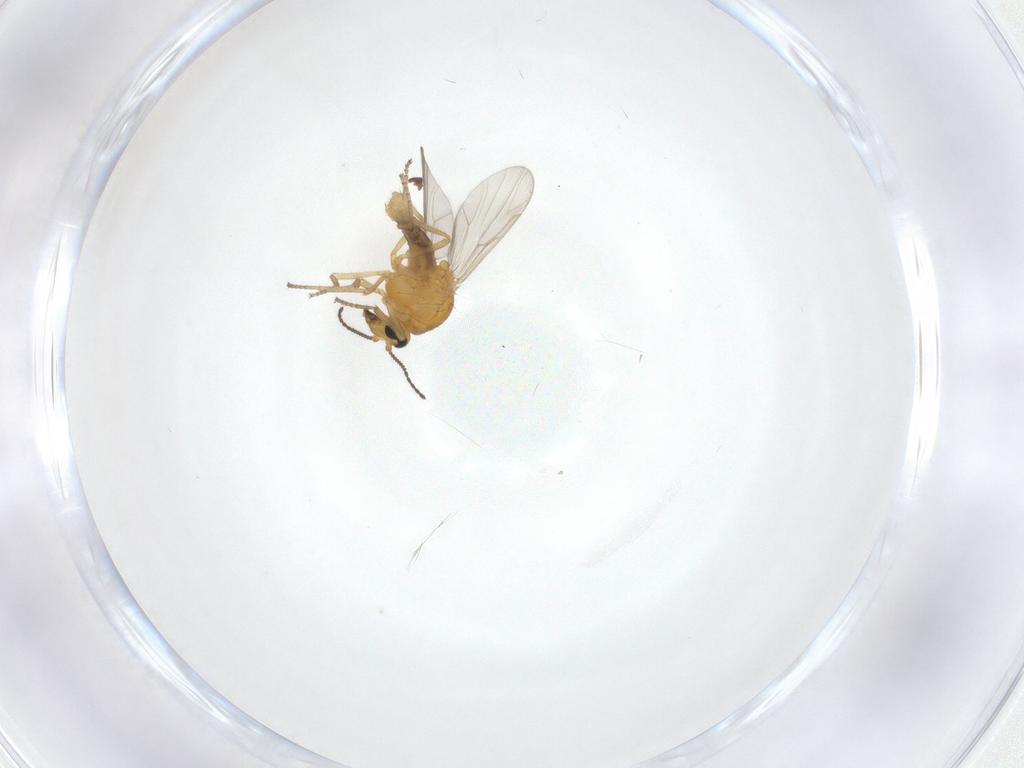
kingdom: Animalia
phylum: Arthropoda
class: Insecta
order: Diptera
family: Ceratopogonidae
